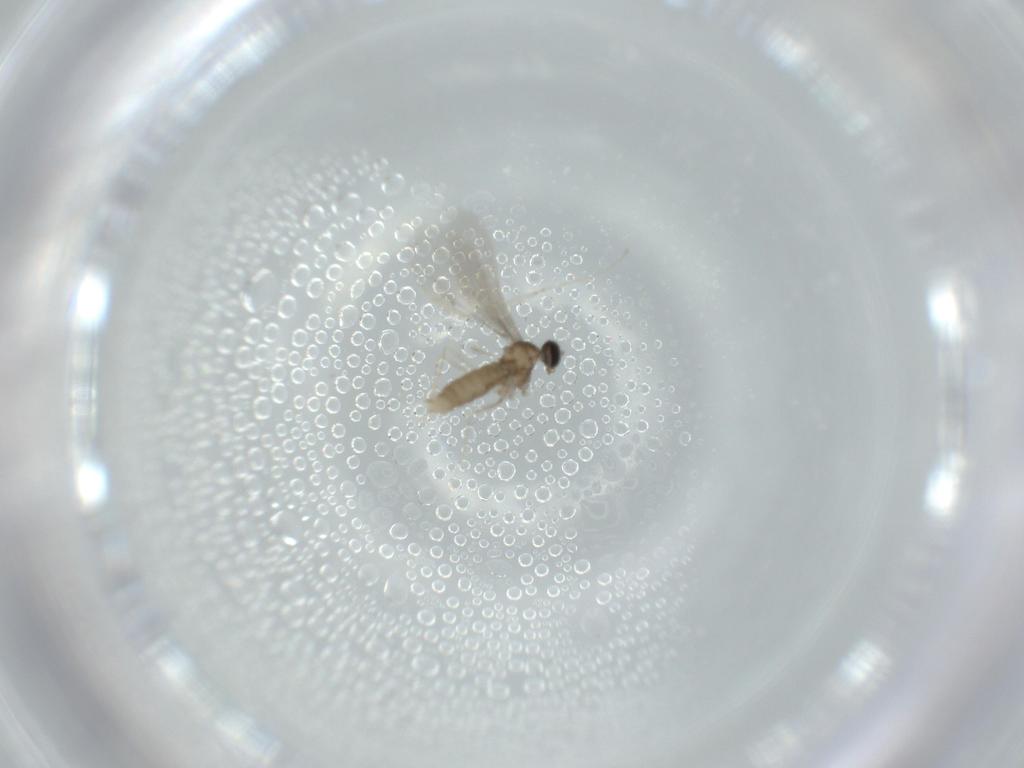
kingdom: Animalia
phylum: Arthropoda
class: Insecta
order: Diptera
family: Cecidomyiidae
